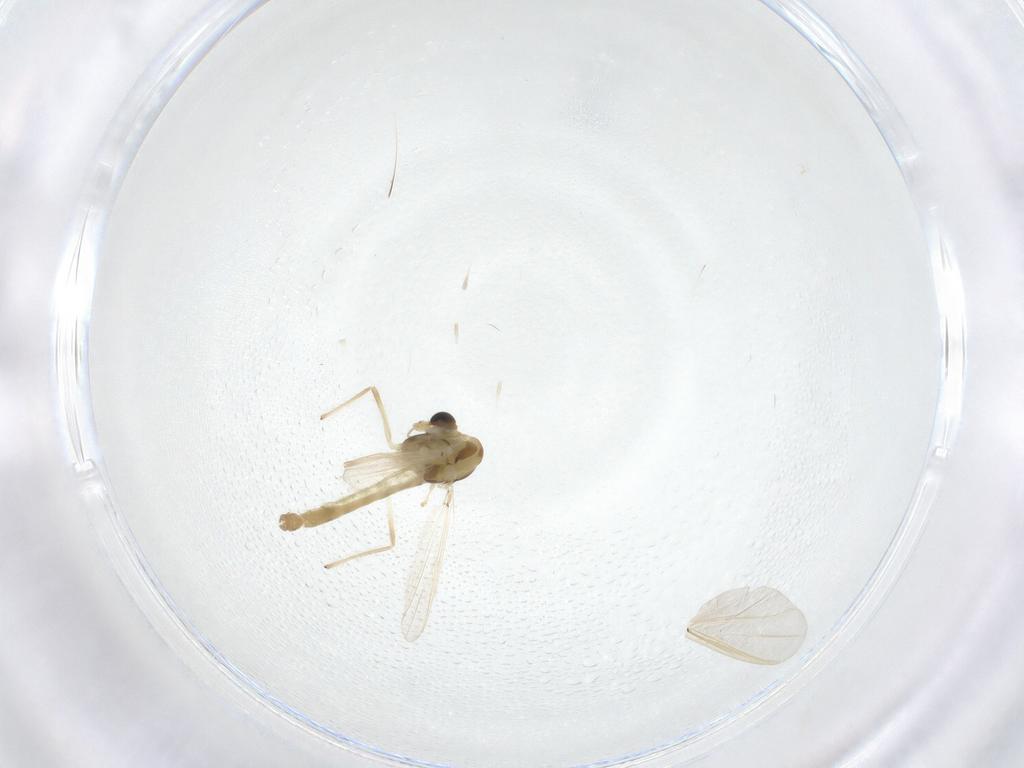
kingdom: Animalia
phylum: Arthropoda
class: Insecta
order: Diptera
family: Chironomidae
